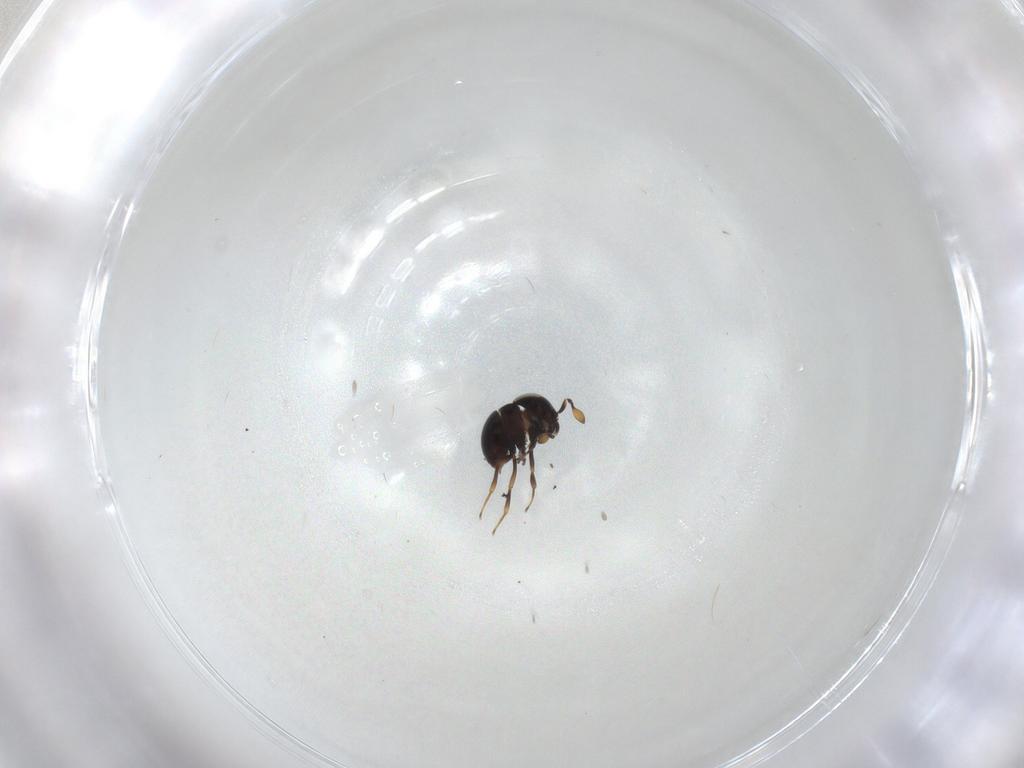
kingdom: Animalia
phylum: Arthropoda
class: Insecta
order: Hymenoptera
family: Scelionidae
